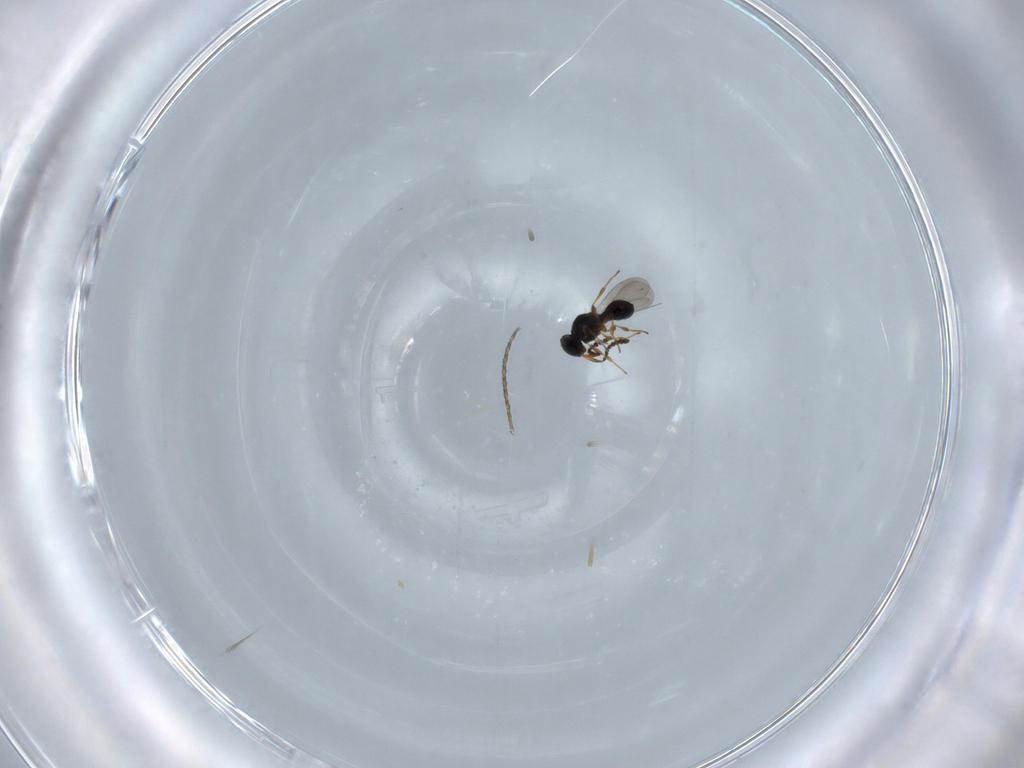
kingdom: Animalia
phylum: Arthropoda
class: Insecta
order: Hymenoptera
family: Platygastridae
